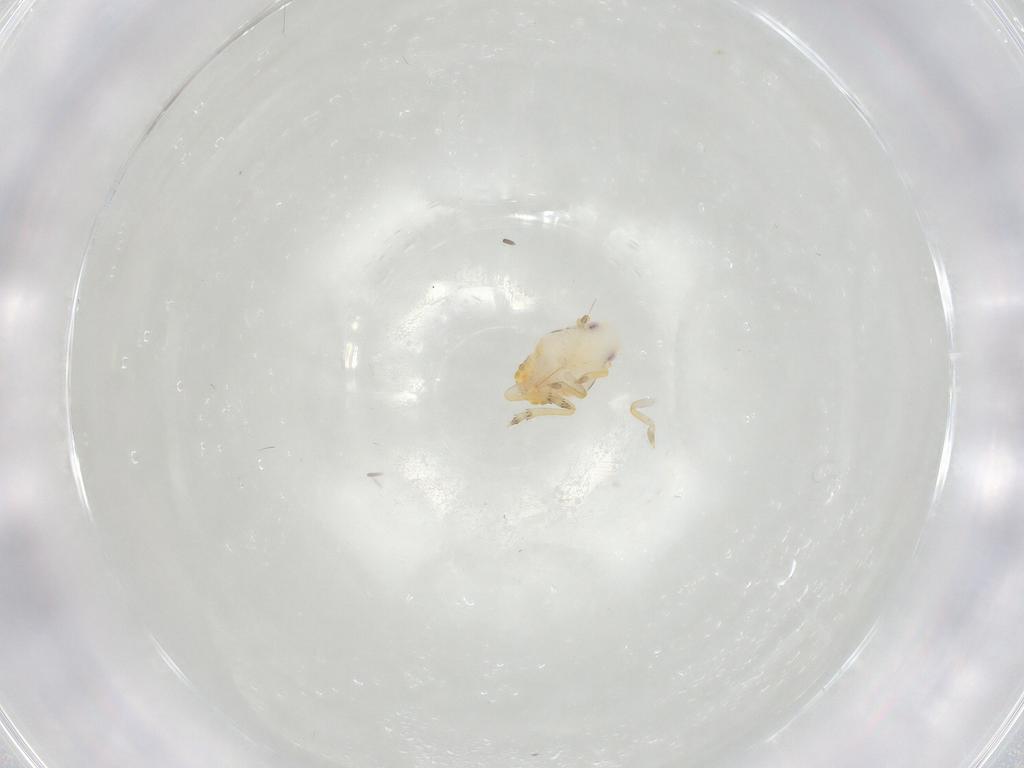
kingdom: Animalia
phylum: Arthropoda
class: Insecta
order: Hemiptera
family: Flatidae
